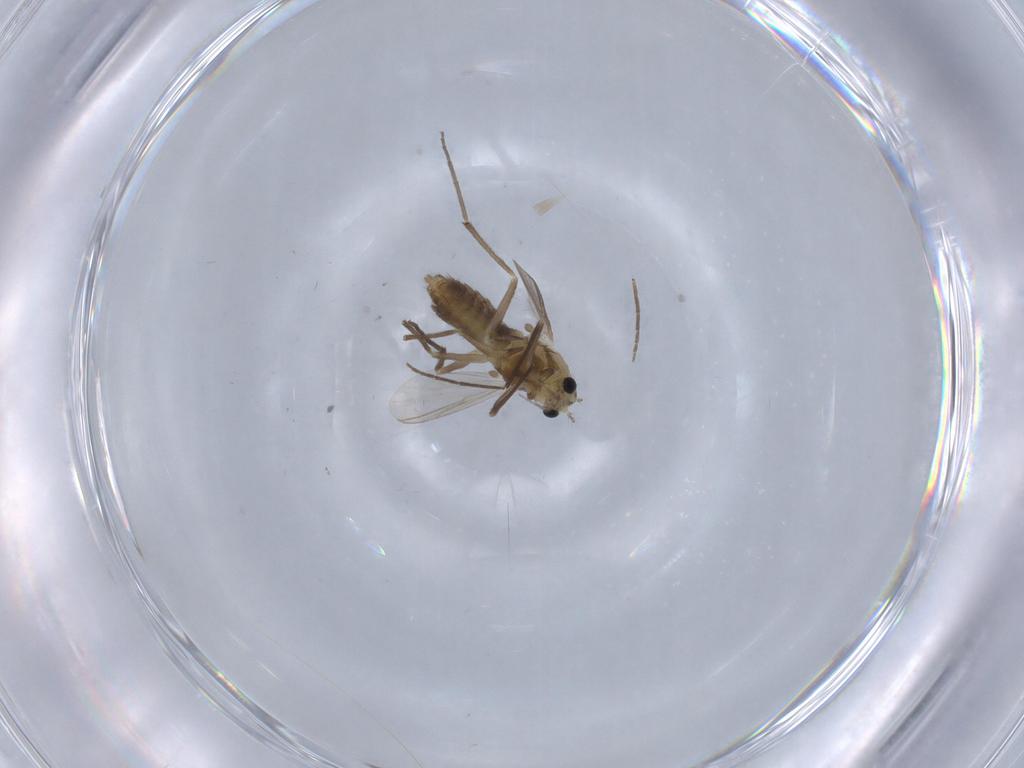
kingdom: Animalia
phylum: Arthropoda
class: Insecta
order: Diptera
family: Chironomidae
